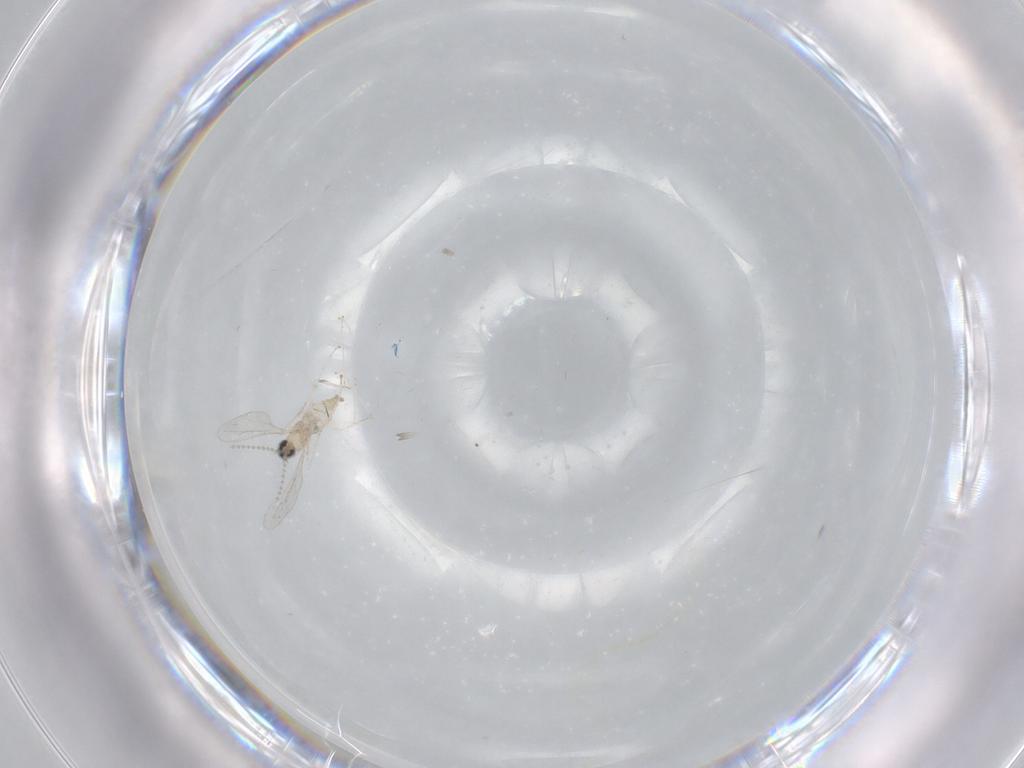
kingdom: Animalia
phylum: Arthropoda
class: Insecta
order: Diptera
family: Cecidomyiidae
